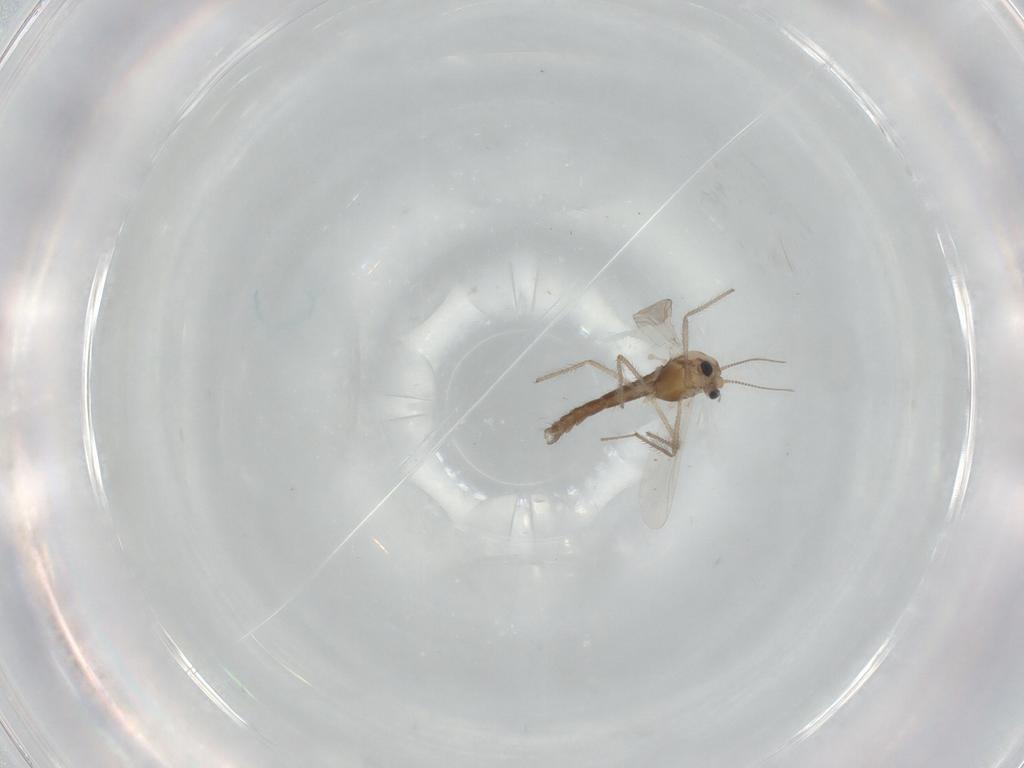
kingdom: Animalia
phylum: Arthropoda
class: Insecta
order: Diptera
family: Chironomidae
